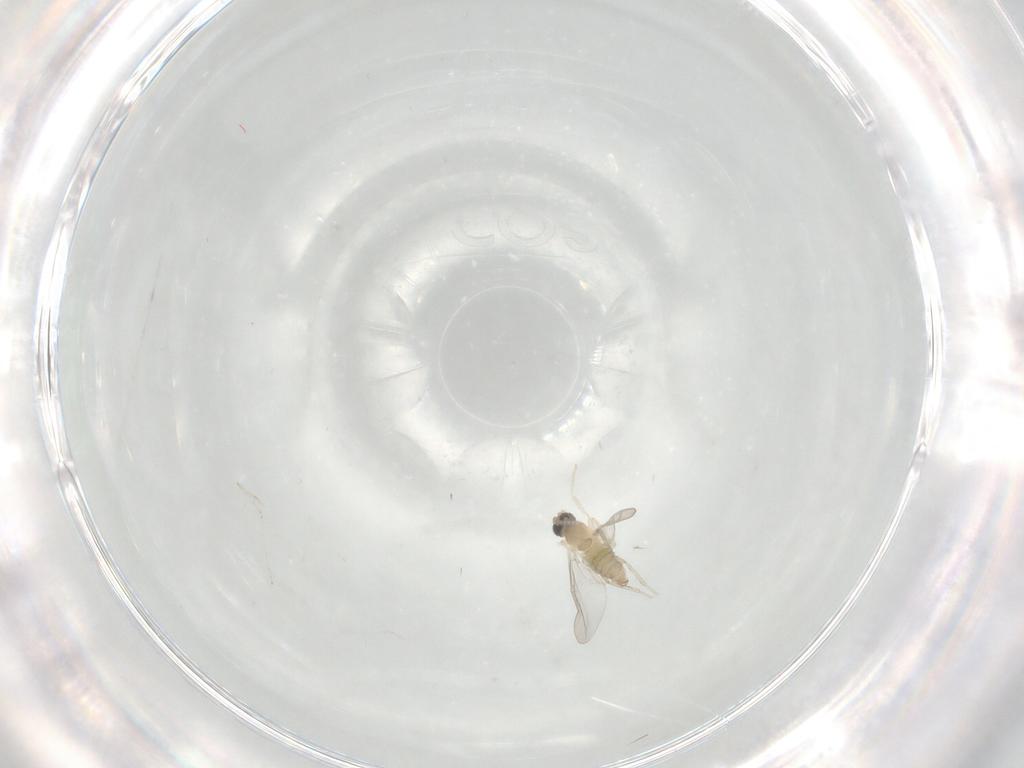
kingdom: Animalia
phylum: Arthropoda
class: Insecta
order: Diptera
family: Cecidomyiidae
